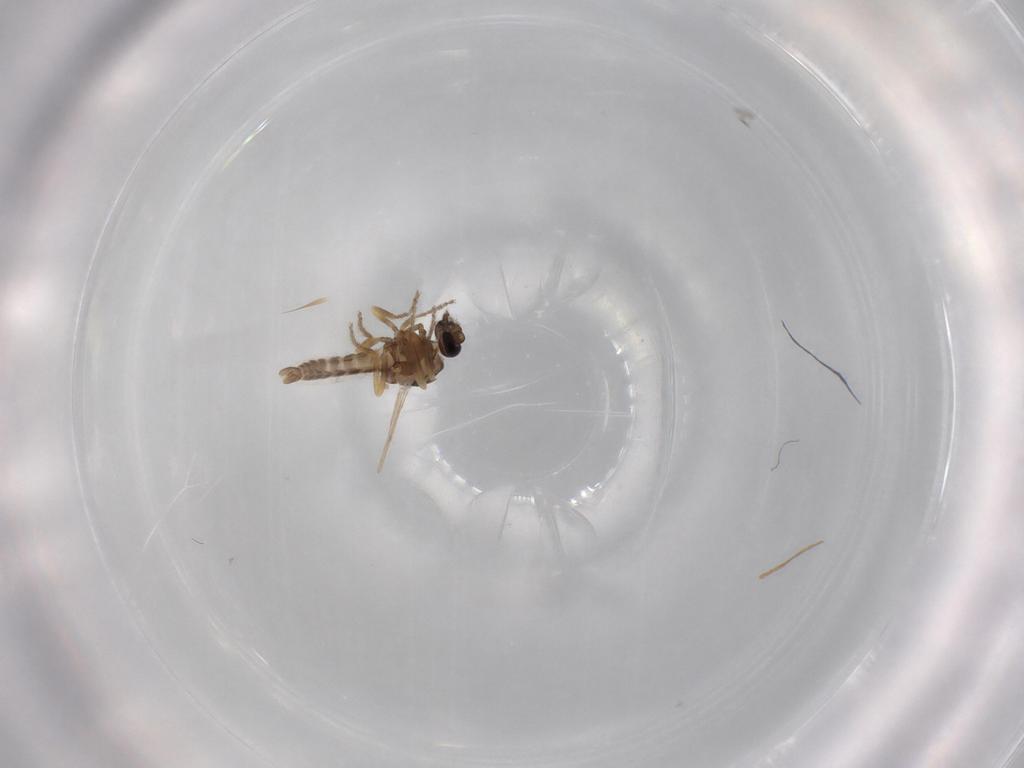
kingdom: Animalia
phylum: Arthropoda
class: Insecta
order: Diptera
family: Ceratopogonidae
